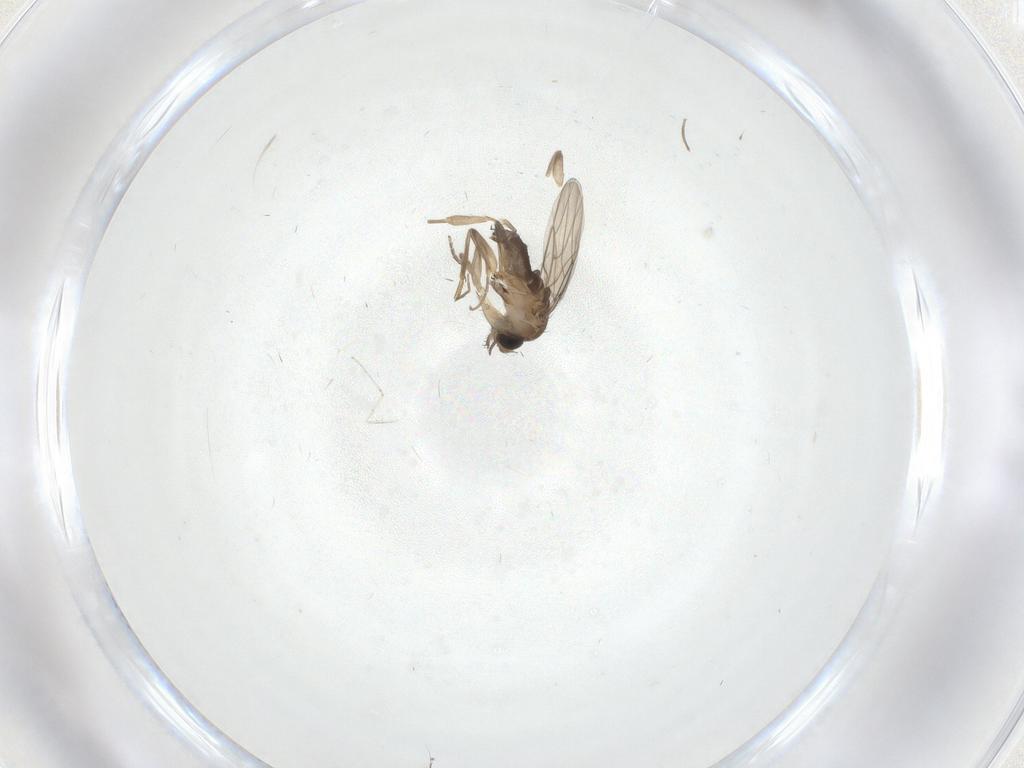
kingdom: Animalia
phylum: Arthropoda
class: Insecta
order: Diptera
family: Phoridae
